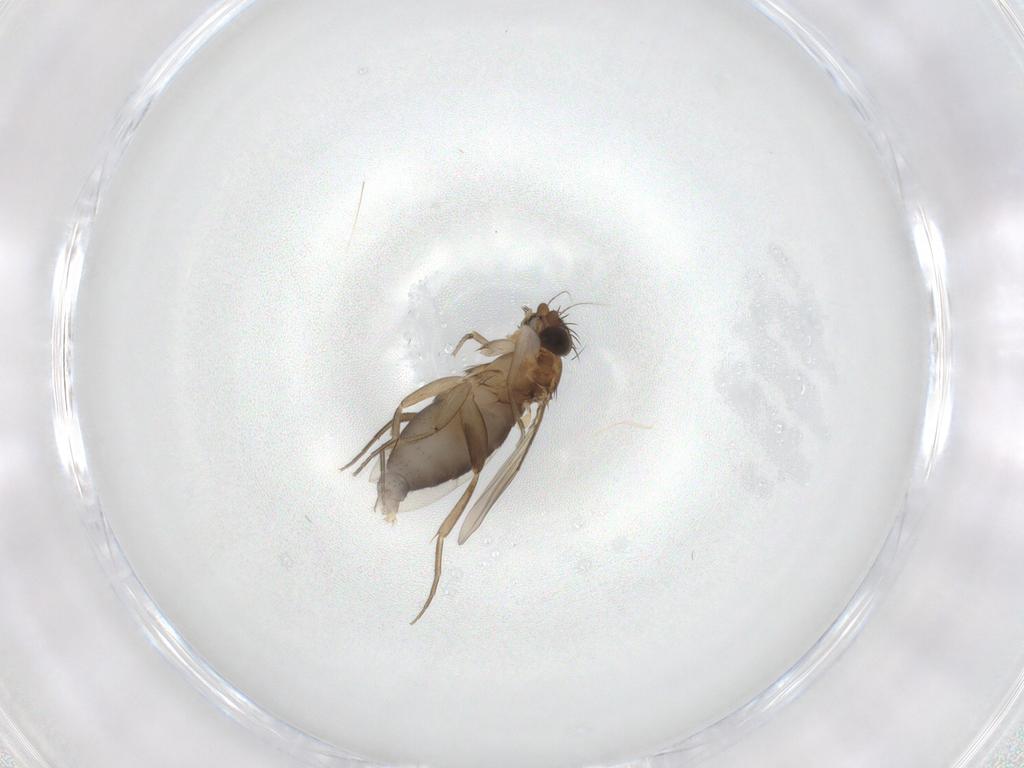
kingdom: Animalia
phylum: Arthropoda
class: Insecta
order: Diptera
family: Phoridae
